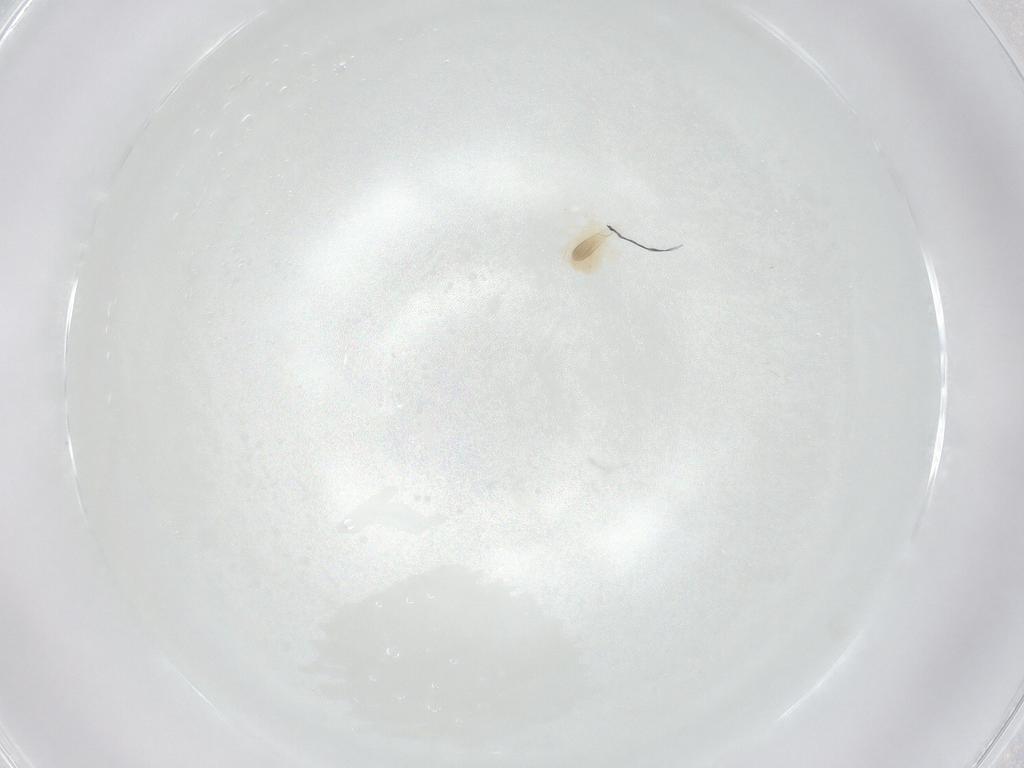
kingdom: Animalia
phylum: Arthropoda
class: Arachnida
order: Trombidiformes
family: Anystidae
